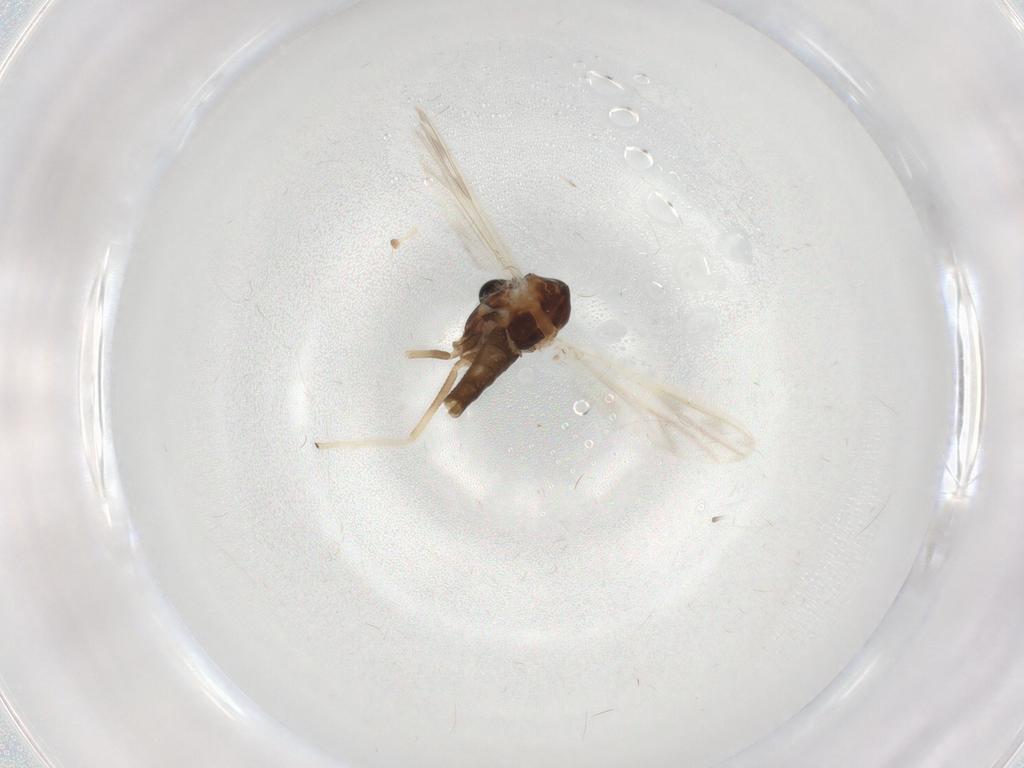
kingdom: Animalia
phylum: Arthropoda
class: Insecta
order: Diptera
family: Chironomidae
